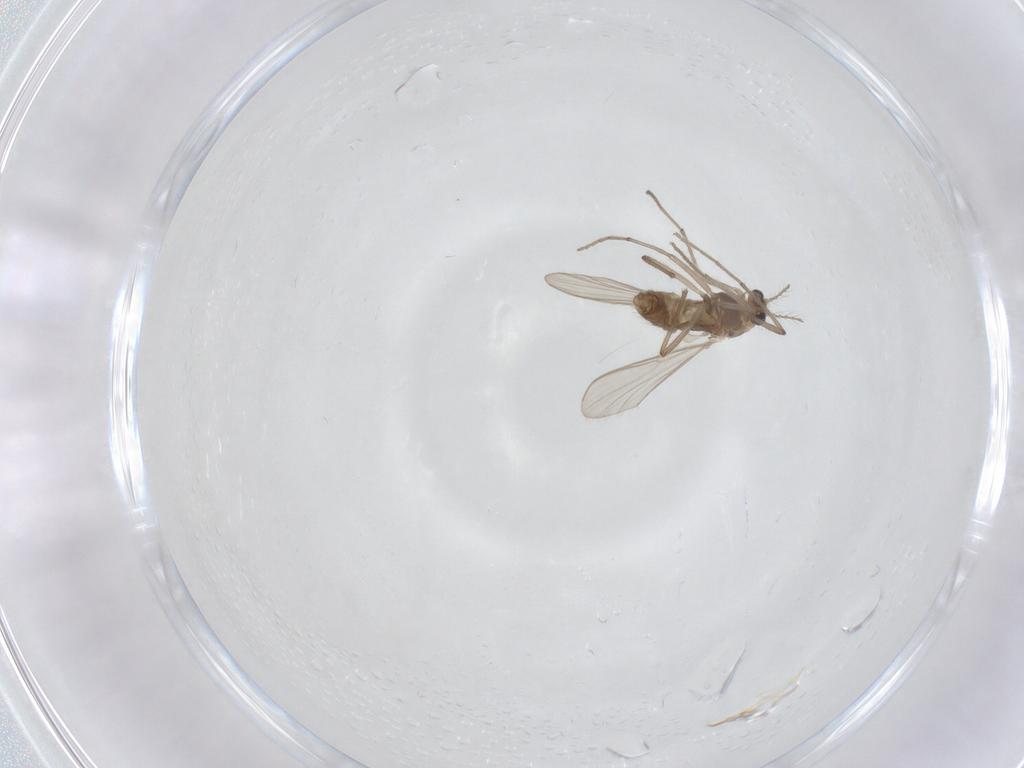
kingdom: Animalia
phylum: Arthropoda
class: Insecta
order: Diptera
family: Chironomidae
